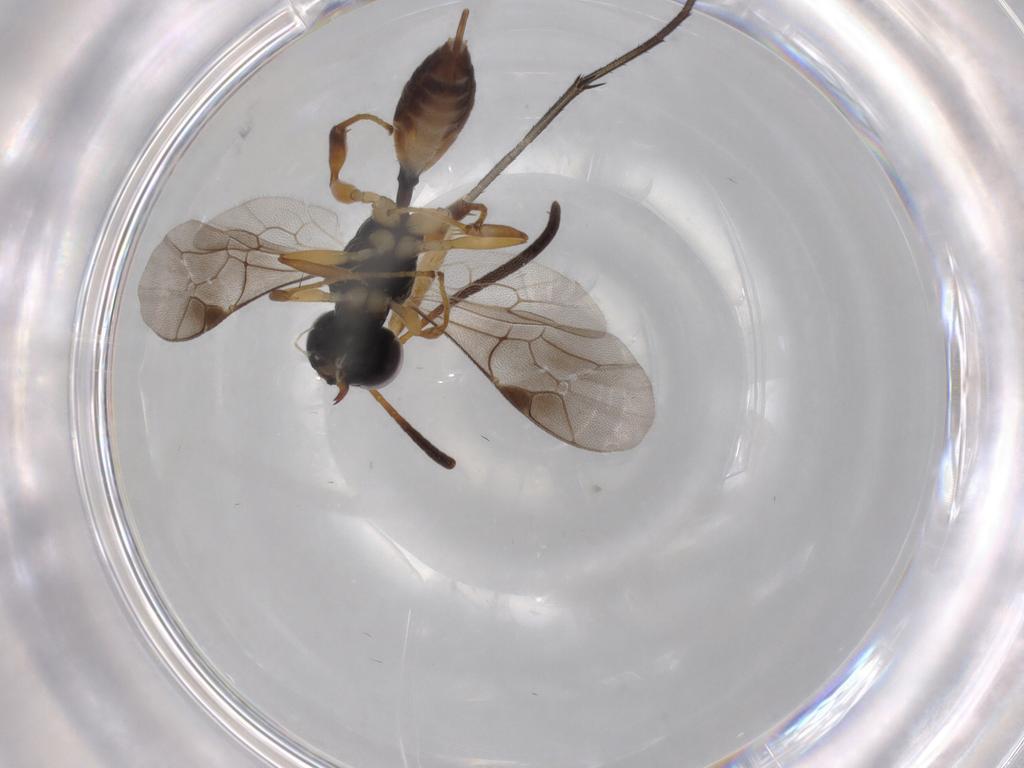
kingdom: Animalia
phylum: Arthropoda
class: Insecta
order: Hymenoptera
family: Ichneumonidae
